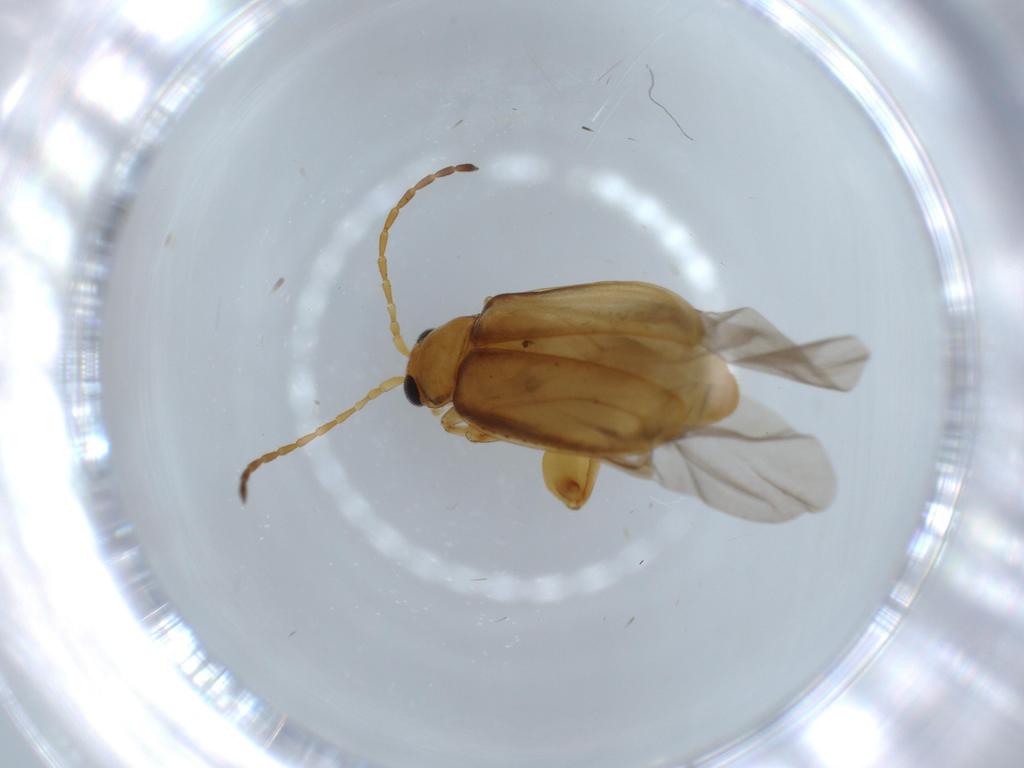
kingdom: Animalia
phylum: Arthropoda
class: Insecta
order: Coleoptera
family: Chrysomelidae
